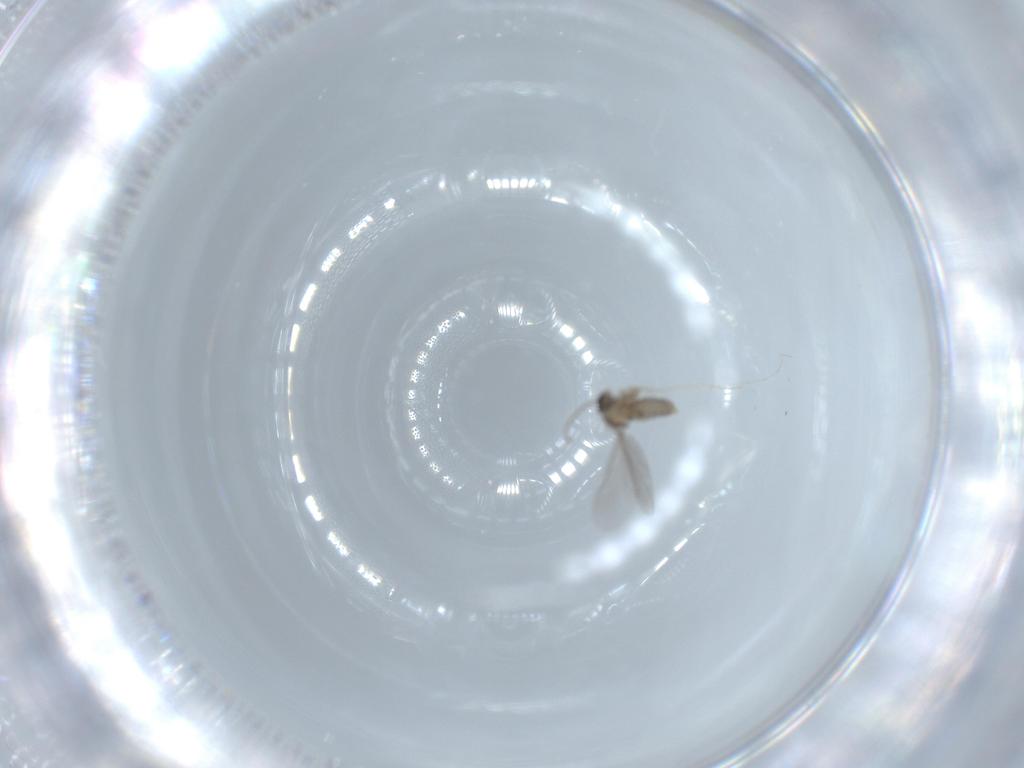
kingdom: Animalia
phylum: Arthropoda
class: Insecta
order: Diptera
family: Cecidomyiidae
